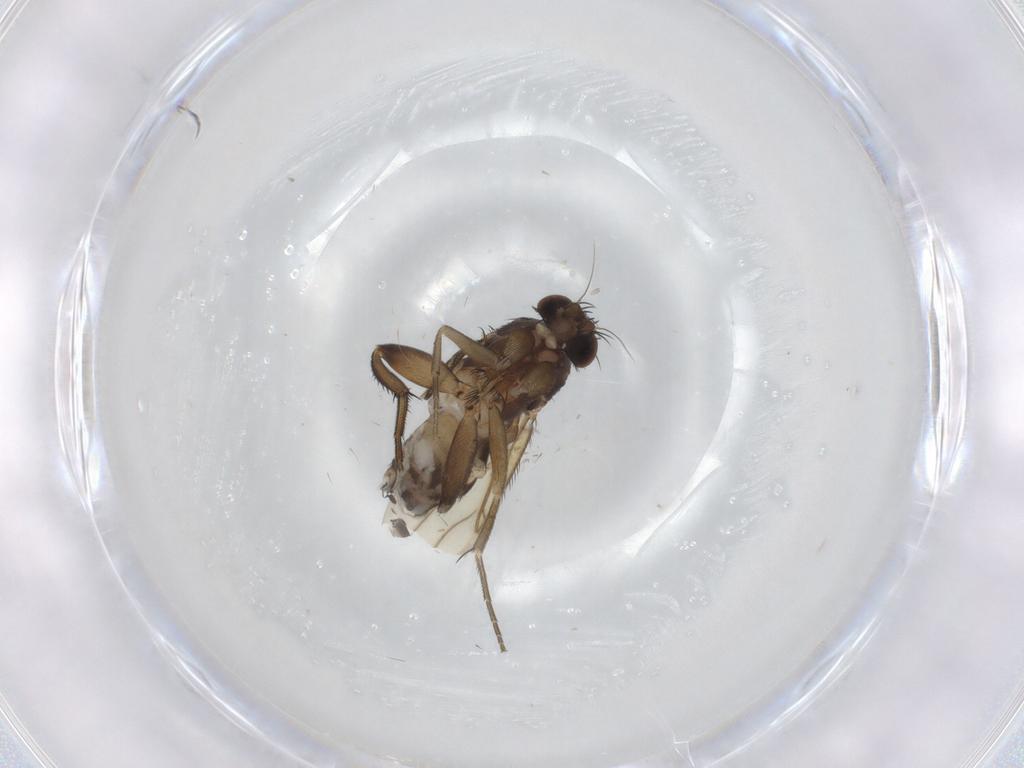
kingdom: Animalia
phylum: Arthropoda
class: Insecta
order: Diptera
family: Phoridae
